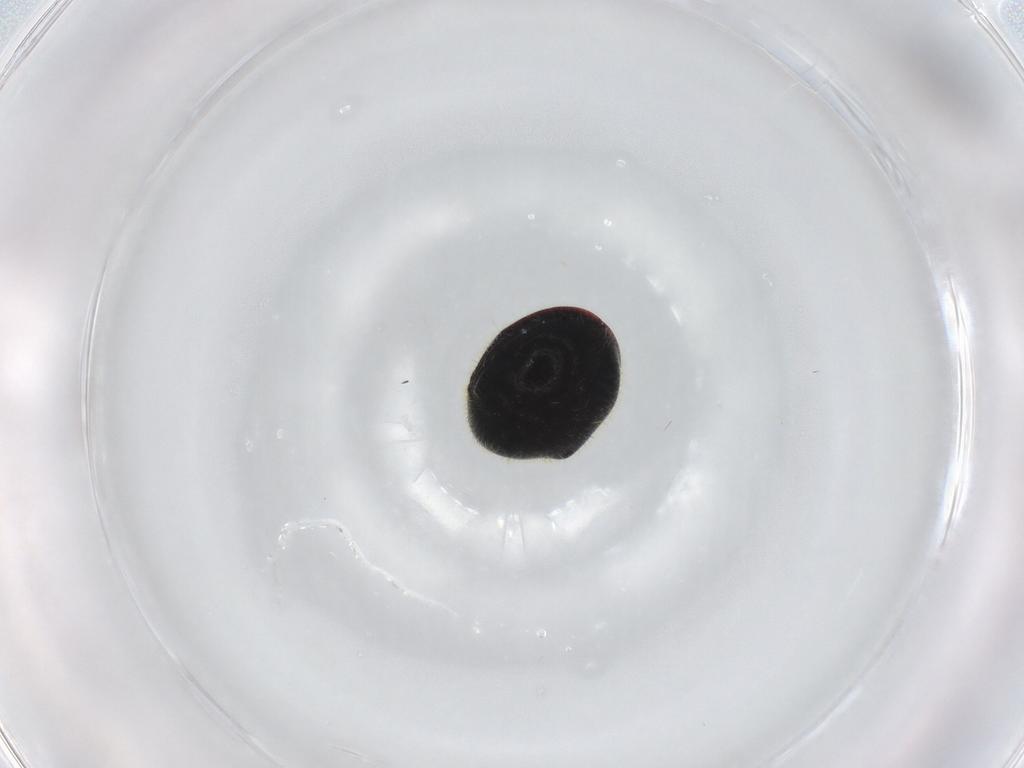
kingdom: Animalia
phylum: Arthropoda
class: Insecta
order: Coleoptera
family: Ptinidae
